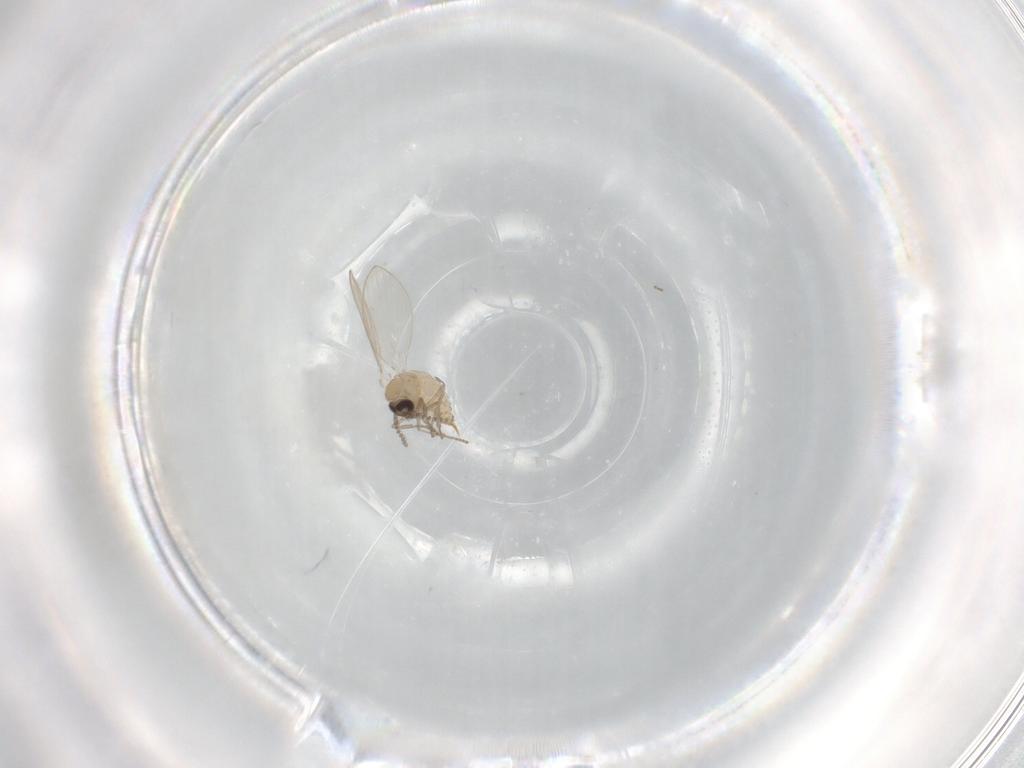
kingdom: Animalia
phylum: Arthropoda
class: Insecta
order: Diptera
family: Psychodidae
